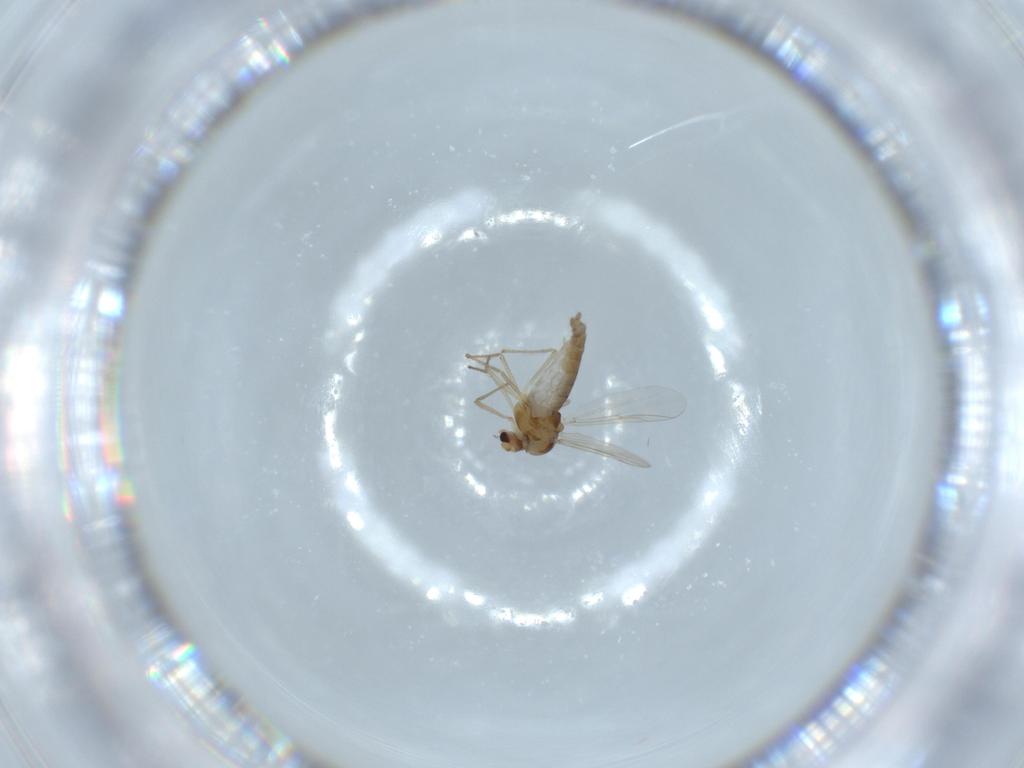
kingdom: Animalia
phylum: Arthropoda
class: Insecta
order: Diptera
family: Chironomidae
